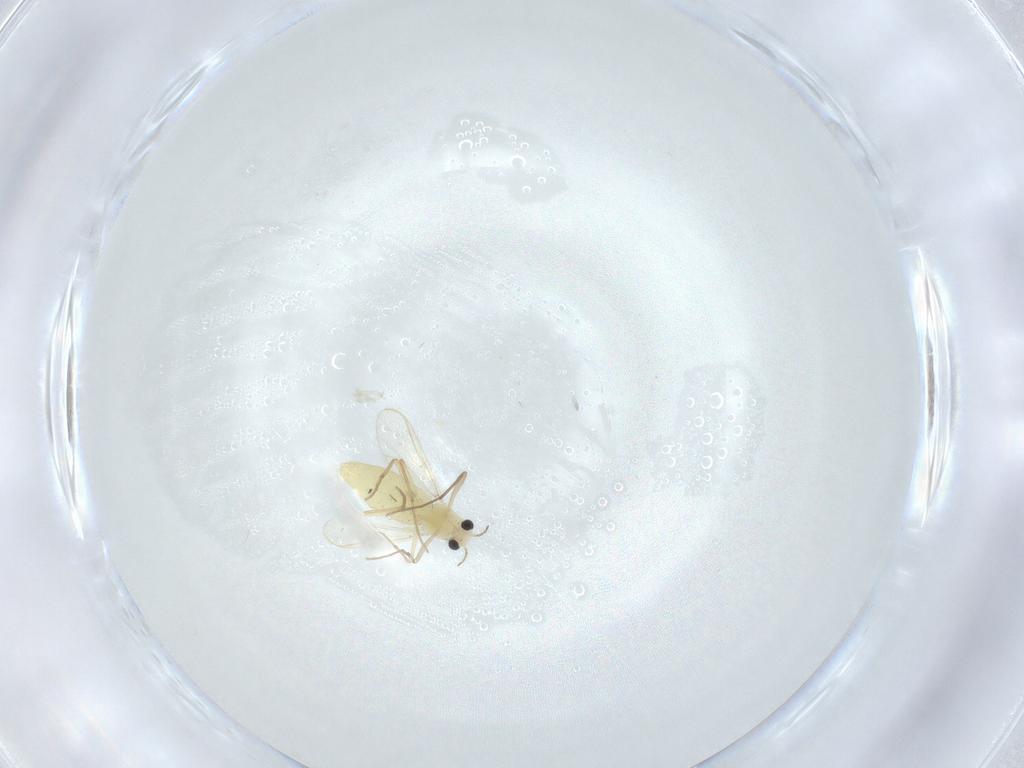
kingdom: Animalia
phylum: Arthropoda
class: Insecta
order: Diptera
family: Chironomidae
